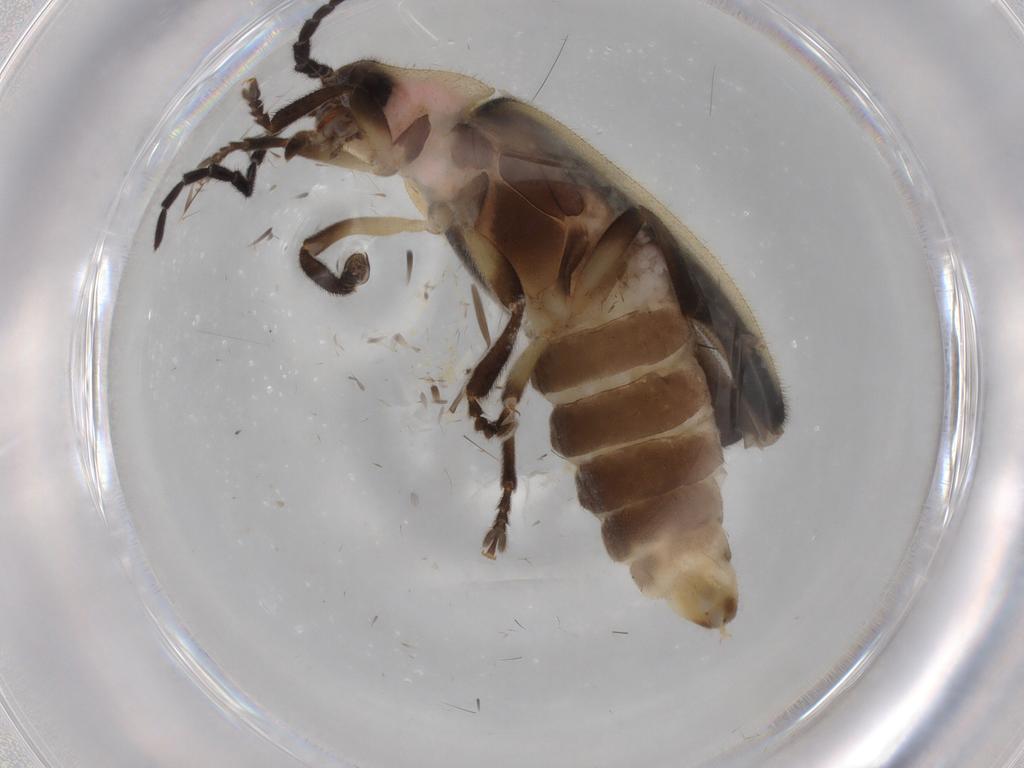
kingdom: Animalia
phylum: Arthropoda
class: Insecta
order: Coleoptera
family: Lampyridae
